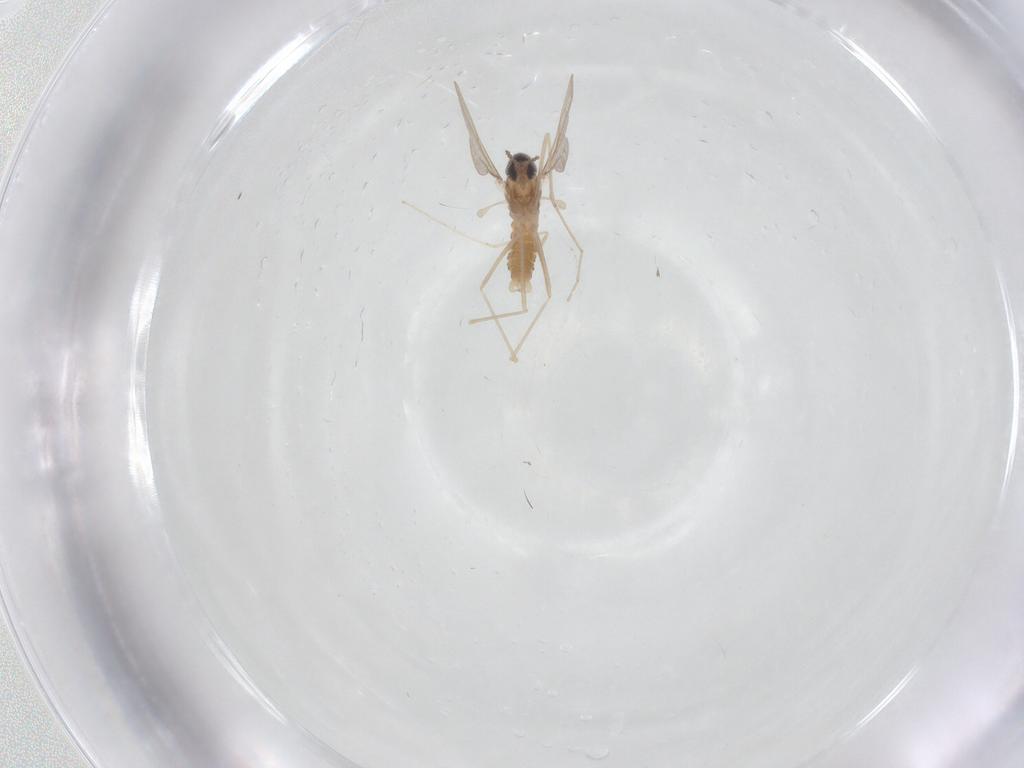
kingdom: Animalia
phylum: Arthropoda
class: Insecta
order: Diptera
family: Cecidomyiidae
